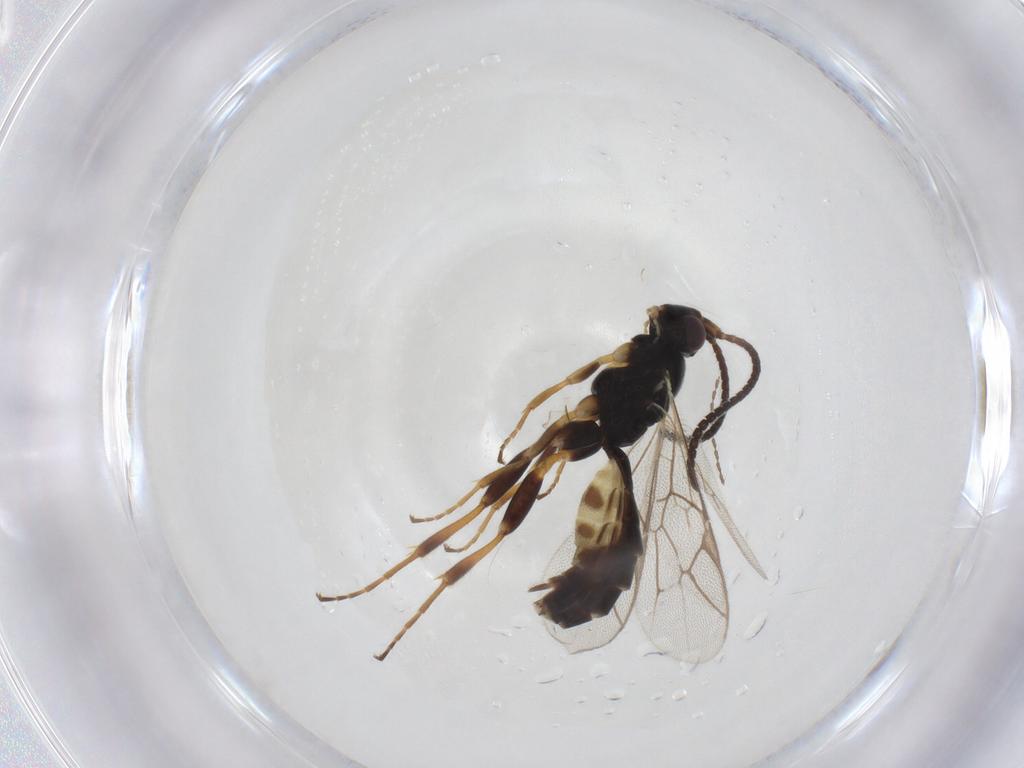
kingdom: Animalia
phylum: Arthropoda
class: Insecta
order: Hymenoptera
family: Ichneumonidae
